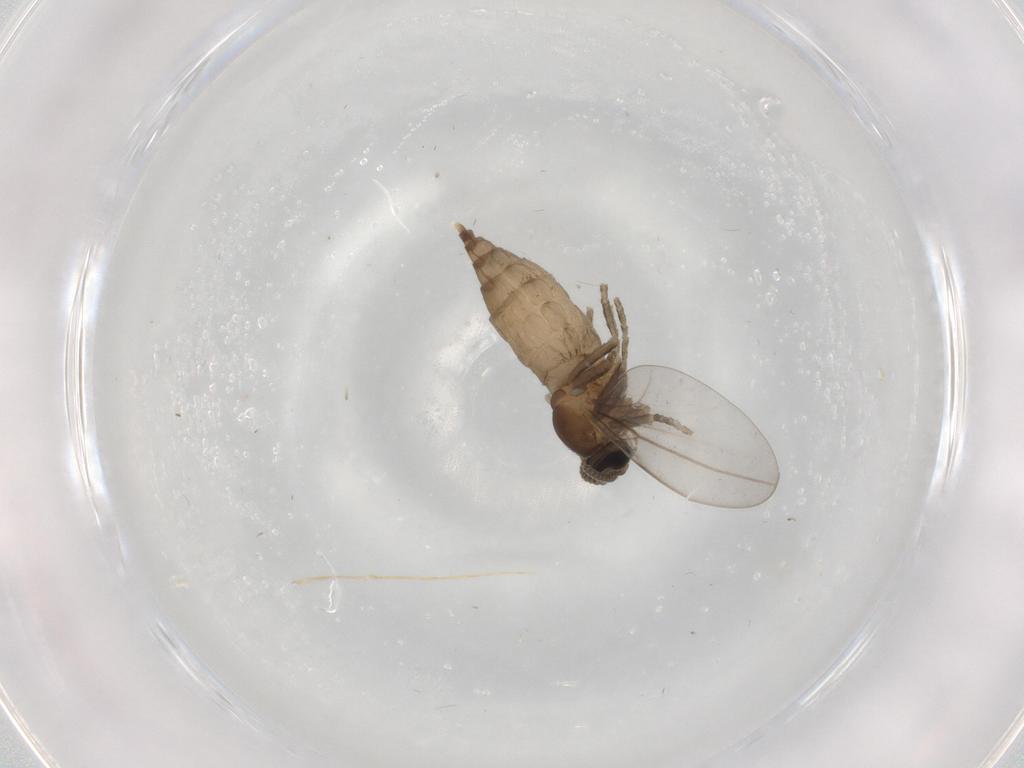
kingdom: Animalia
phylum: Arthropoda
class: Insecta
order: Diptera
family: Cecidomyiidae
